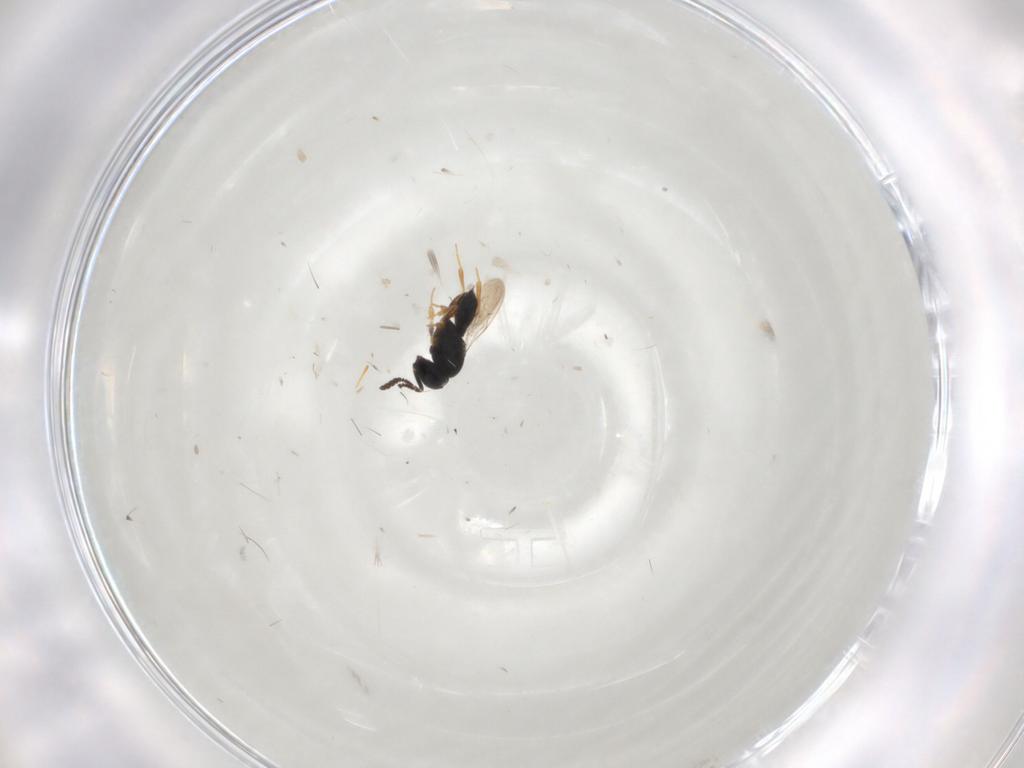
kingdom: Animalia
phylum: Arthropoda
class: Insecta
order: Hymenoptera
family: Scelionidae
